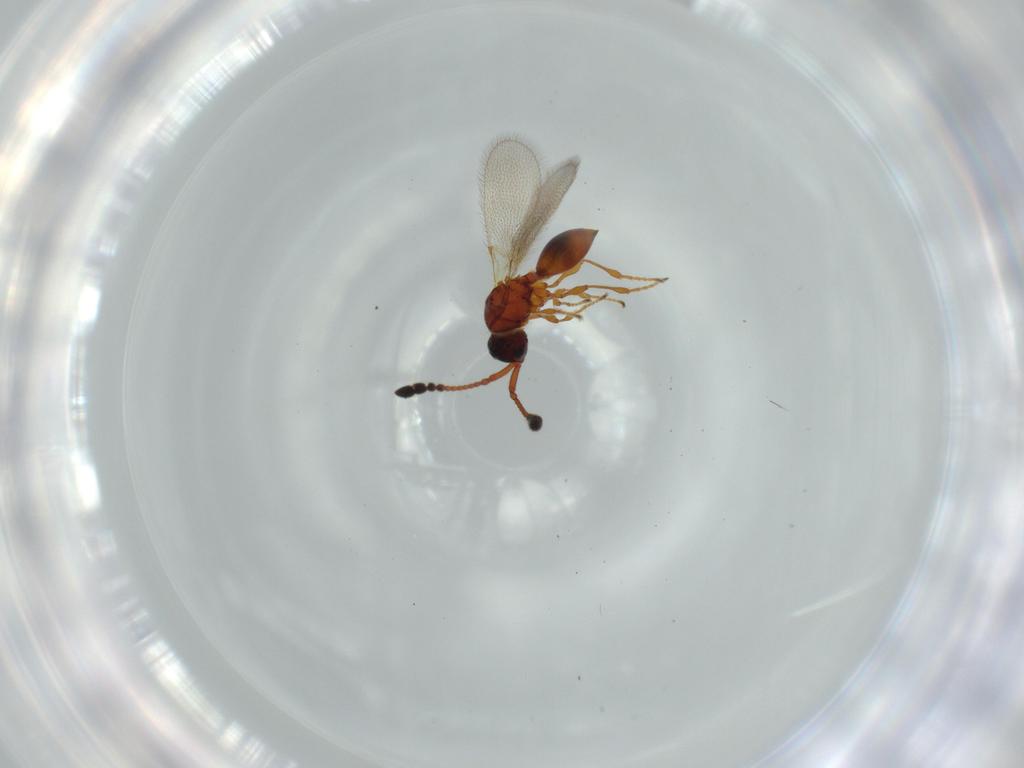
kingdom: Animalia
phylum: Arthropoda
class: Insecta
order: Hymenoptera
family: Diapriidae
